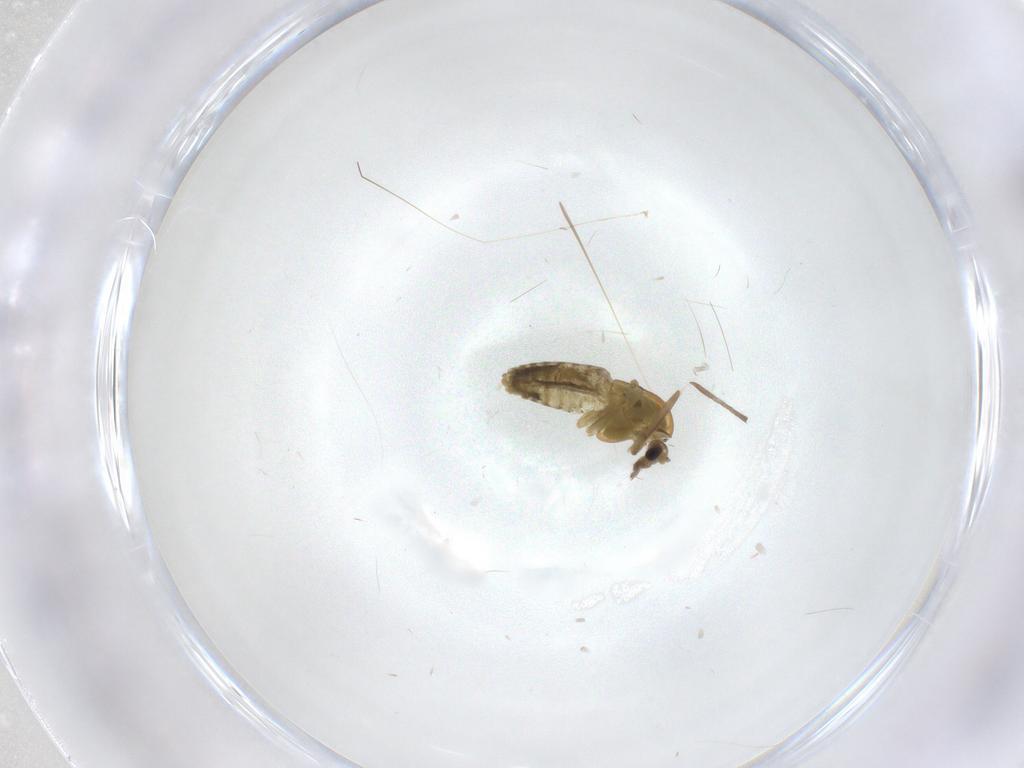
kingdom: Animalia
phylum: Arthropoda
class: Insecta
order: Diptera
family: Chironomidae
